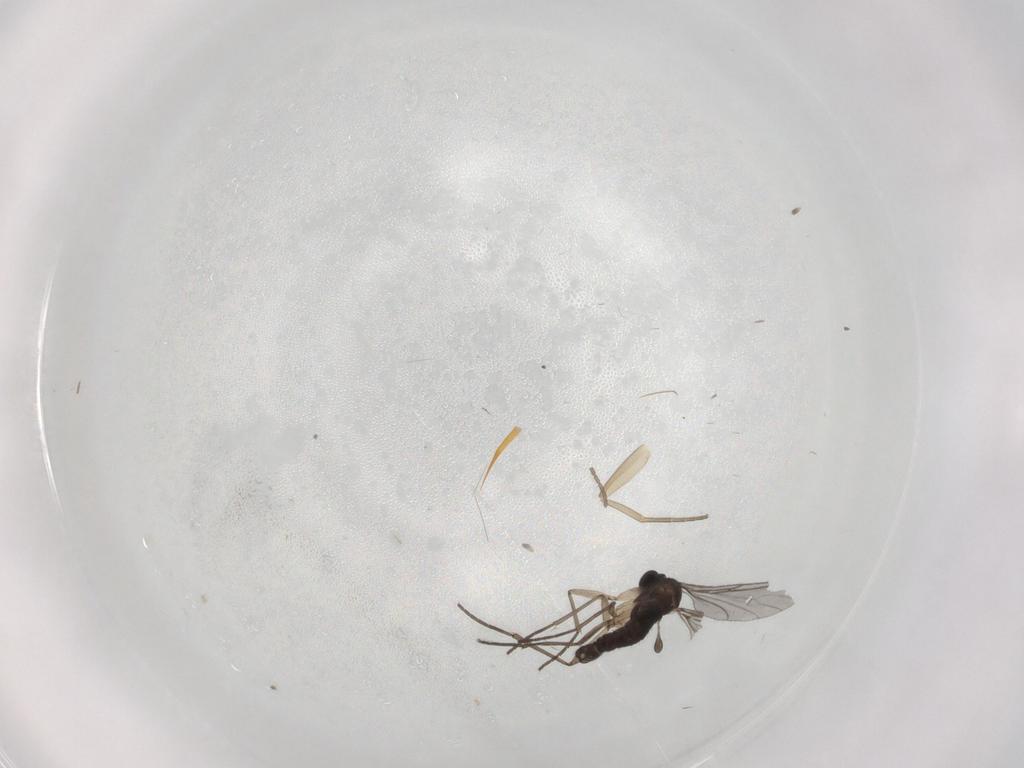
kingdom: Animalia
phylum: Arthropoda
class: Insecta
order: Diptera
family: Sciaridae
